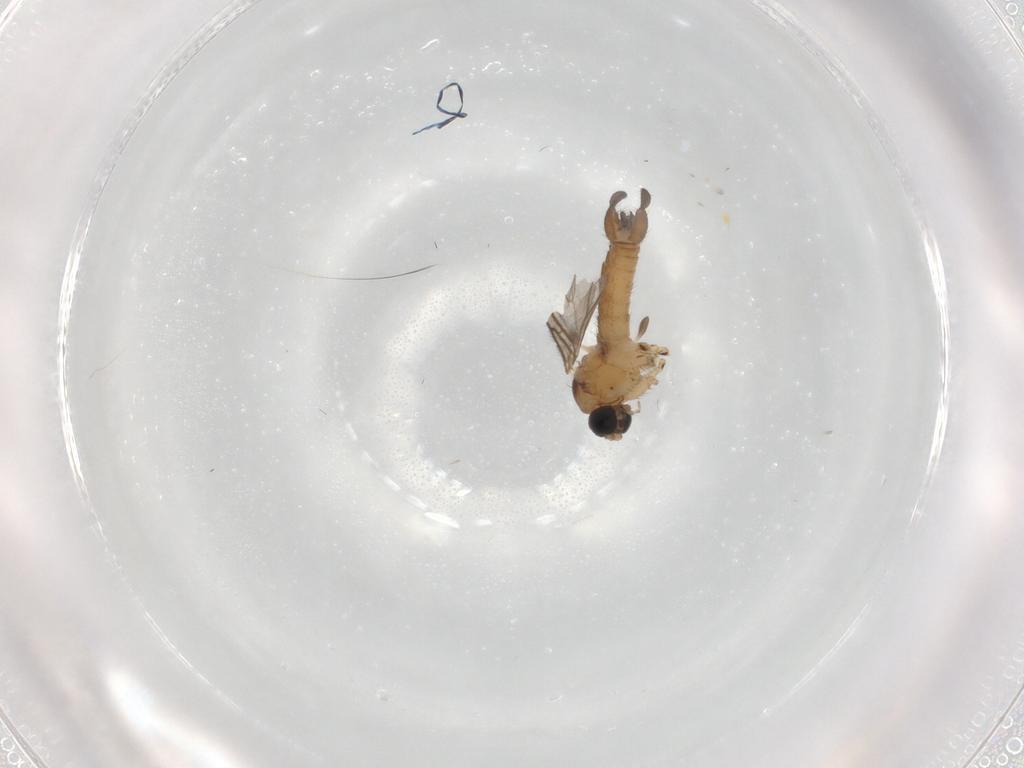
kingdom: Animalia
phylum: Arthropoda
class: Insecta
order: Diptera
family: Sciaridae
